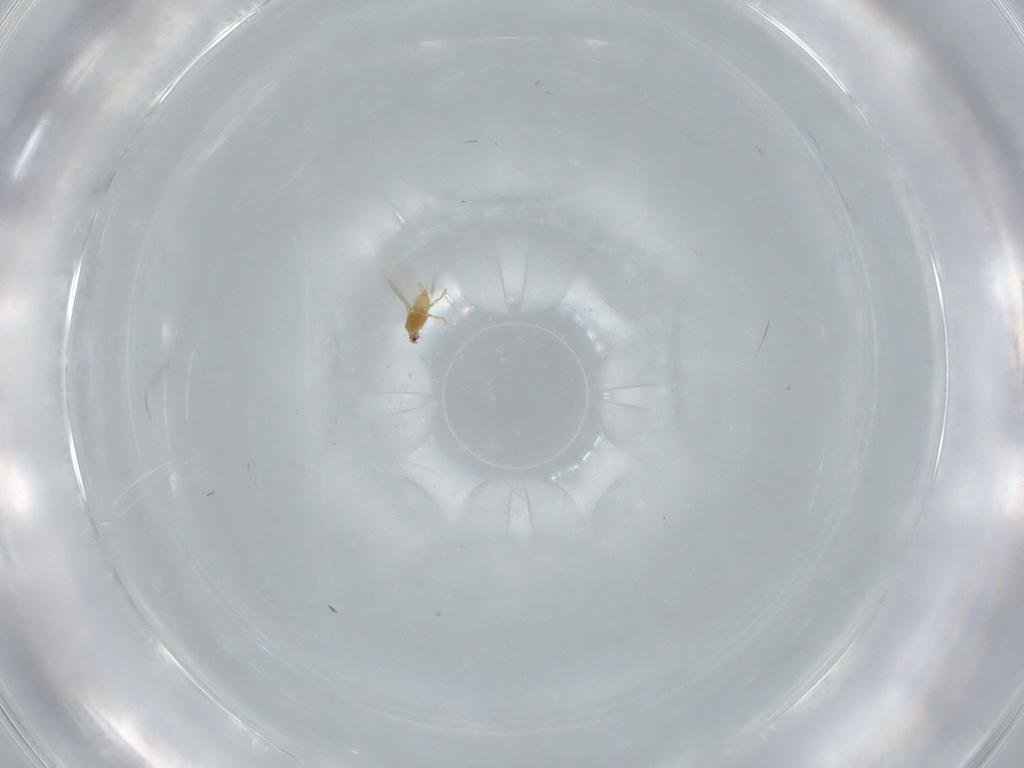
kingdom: Animalia
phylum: Arthropoda
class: Insecta
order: Hemiptera
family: Diaspididae
